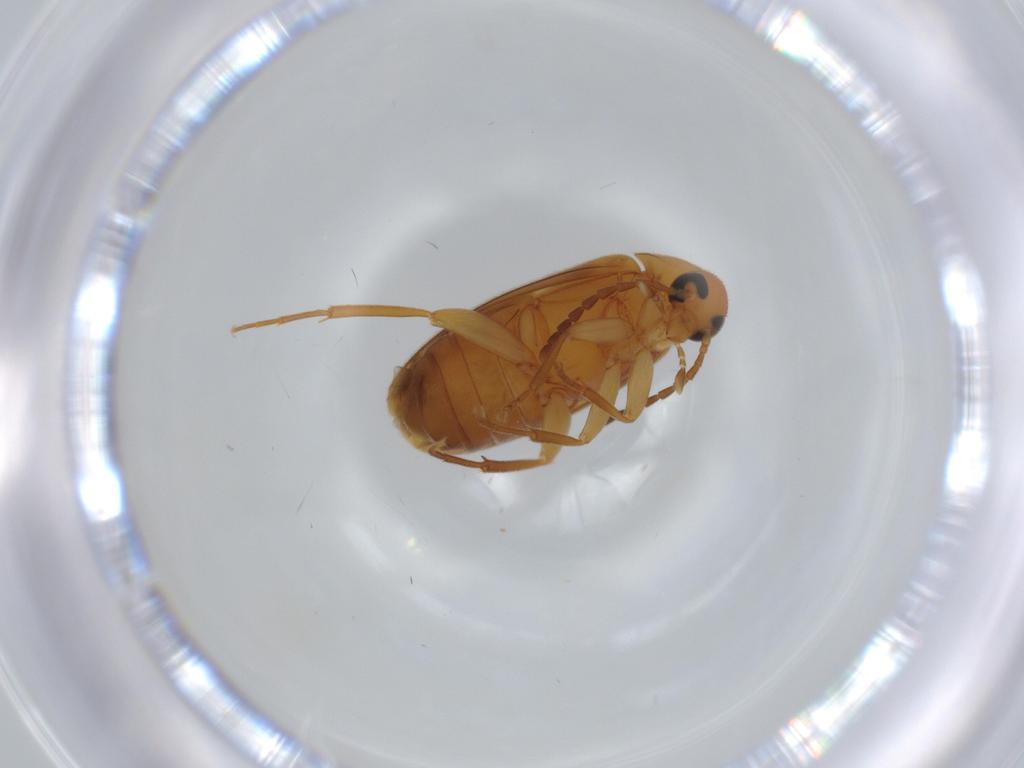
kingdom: Animalia
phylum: Arthropoda
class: Insecta
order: Coleoptera
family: Scraptiidae
